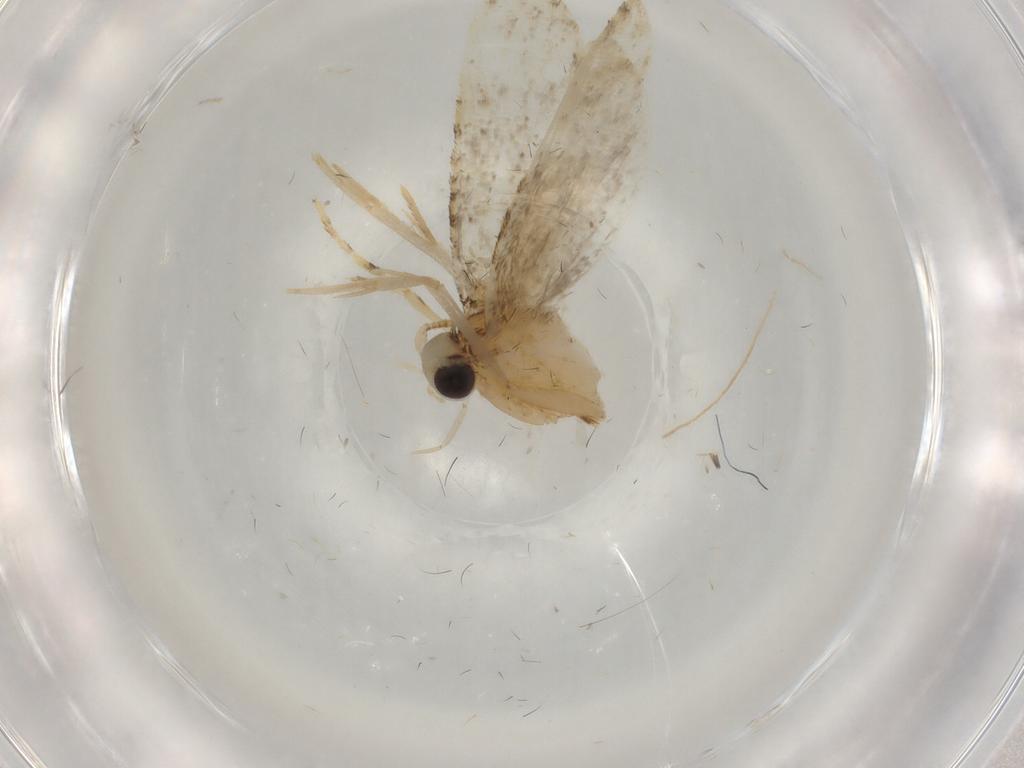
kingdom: Animalia
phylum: Arthropoda
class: Insecta
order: Lepidoptera
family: Tineidae
